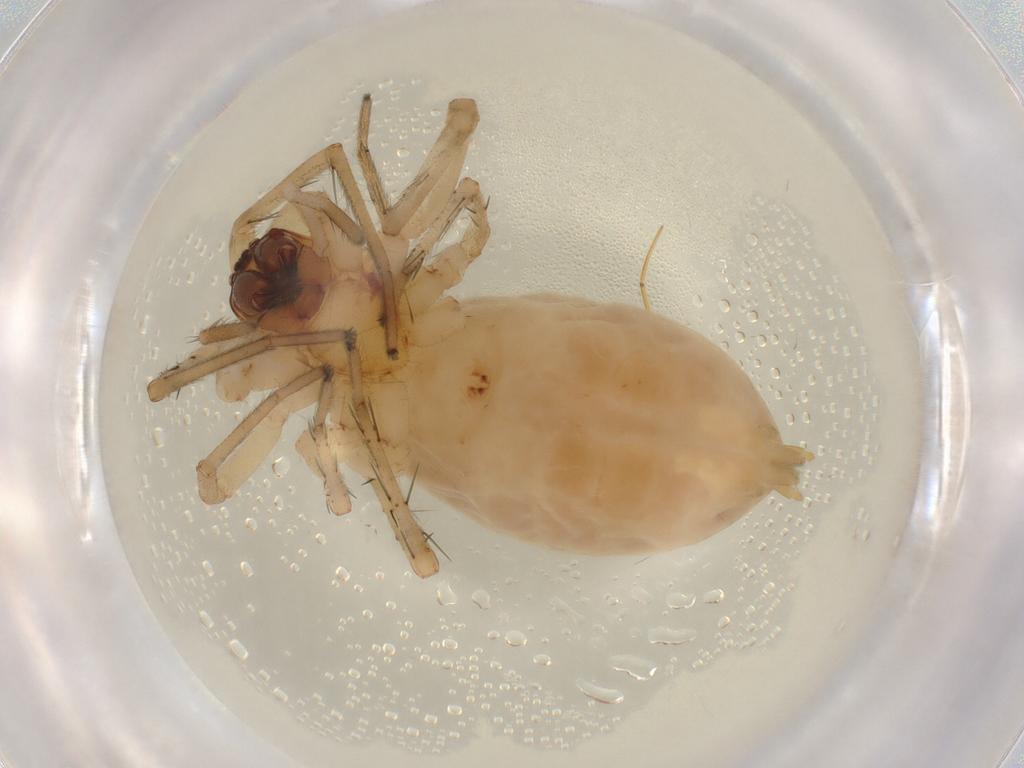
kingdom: Animalia
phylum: Arthropoda
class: Arachnida
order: Araneae
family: Anyphaenidae
